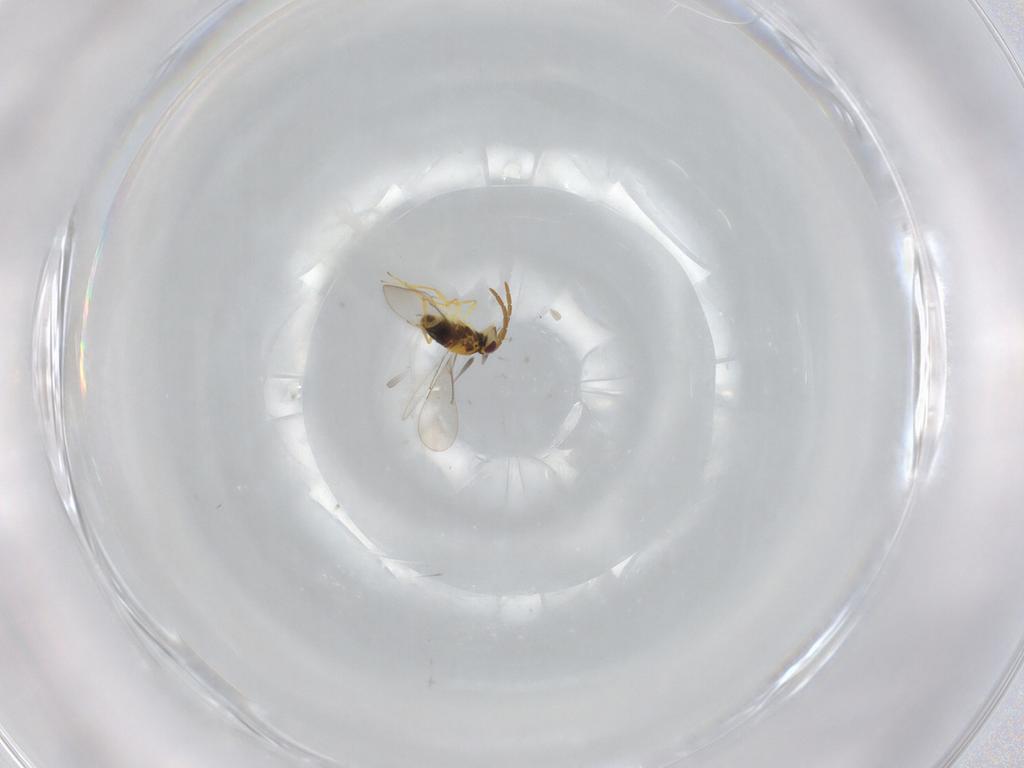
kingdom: Animalia
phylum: Arthropoda
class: Insecta
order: Hymenoptera
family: Aphelinidae
